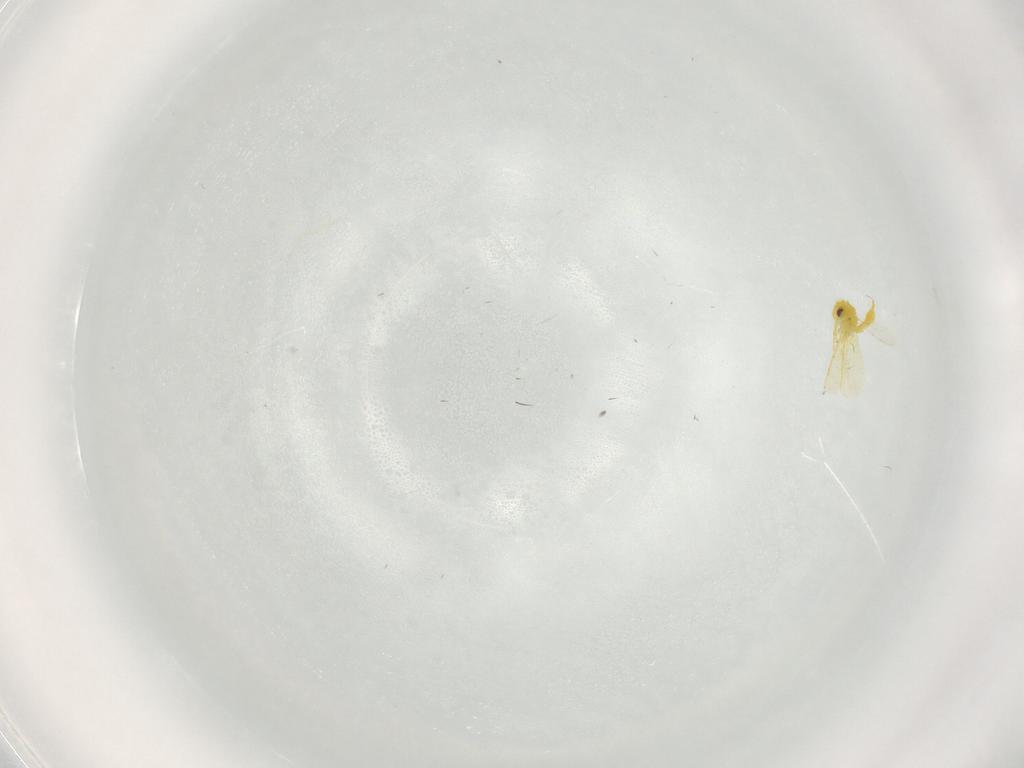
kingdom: Animalia
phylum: Arthropoda
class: Insecta
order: Hemiptera
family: Aleyrodidae
